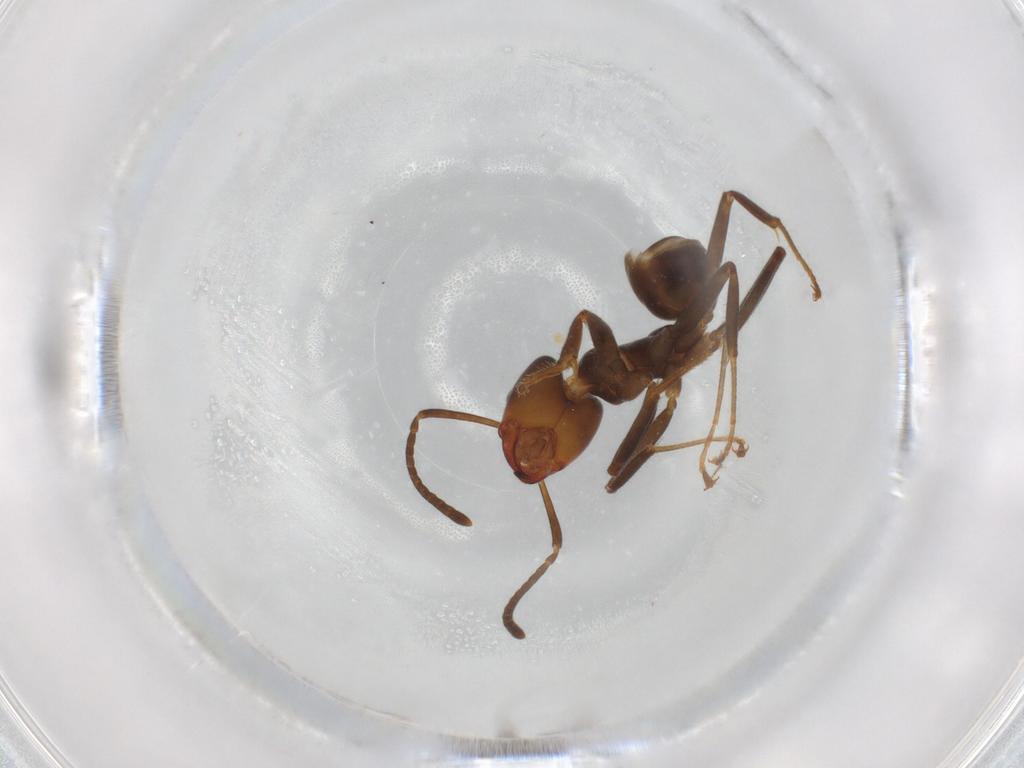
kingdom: Animalia
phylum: Arthropoda
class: Insecta
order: Hymenoptera
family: Formicidae
